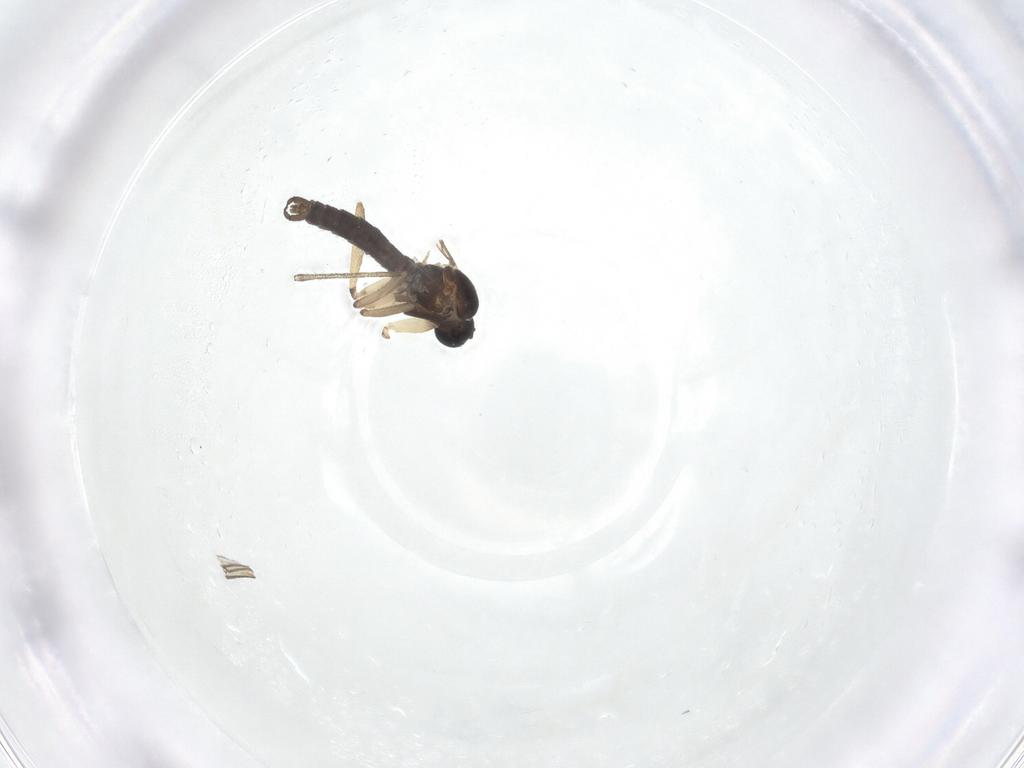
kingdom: Animalia
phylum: Arthropoda
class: Insecta
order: Diptera
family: Sciaridae
